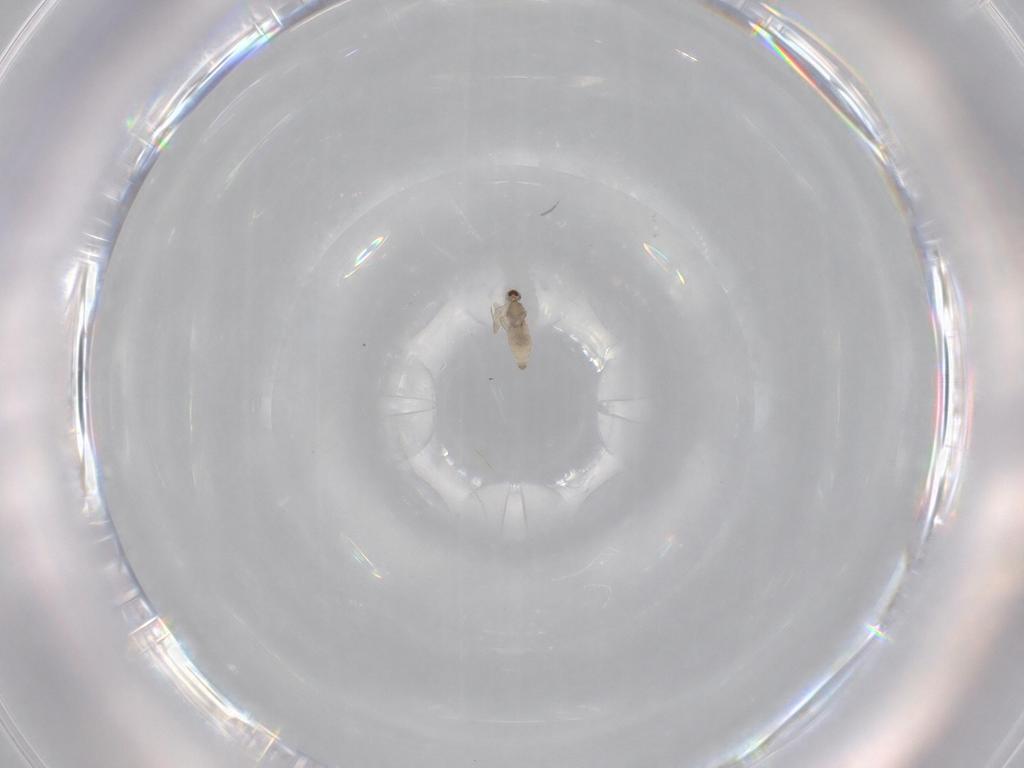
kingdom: Animalia
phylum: Arthropoda
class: Insecta
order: Diptera
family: Cecidomyiidae
